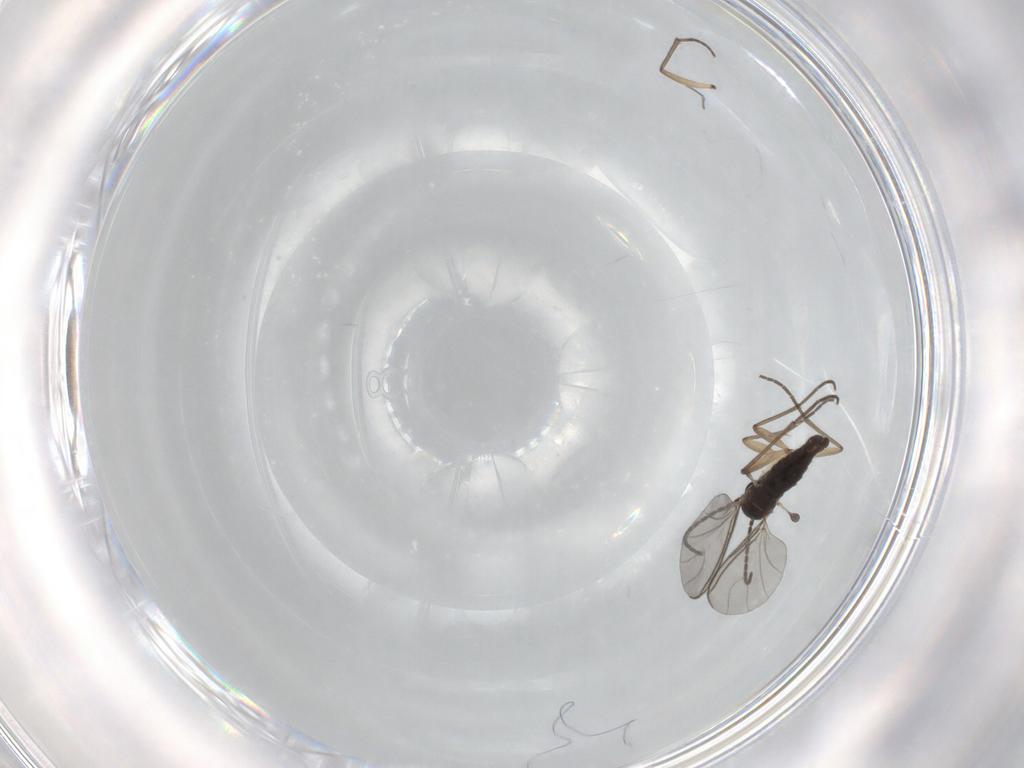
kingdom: Animalia
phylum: Arthropoda
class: Insecta
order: Diptera
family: Sciaridae
